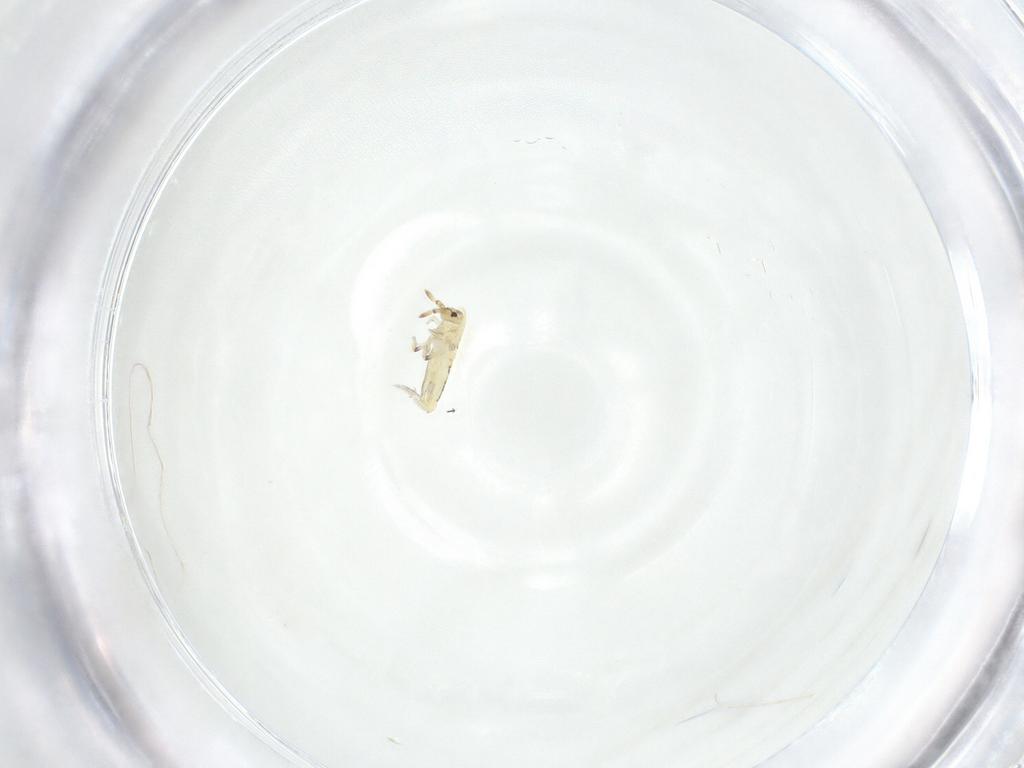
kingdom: Animalia
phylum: Arthropoda
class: Collembola
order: Entomobryomorpha
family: Entomobryidae
